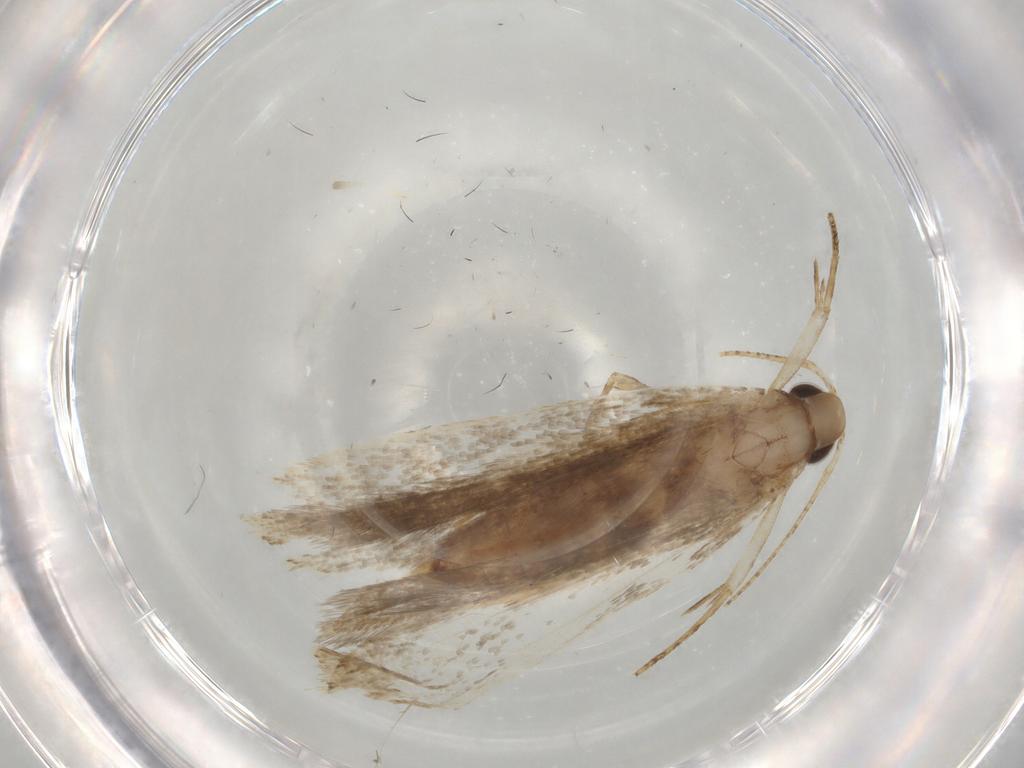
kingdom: Animalia
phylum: Arthropoda
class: Insecta
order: Lepidoptera
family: Gelechiidae
